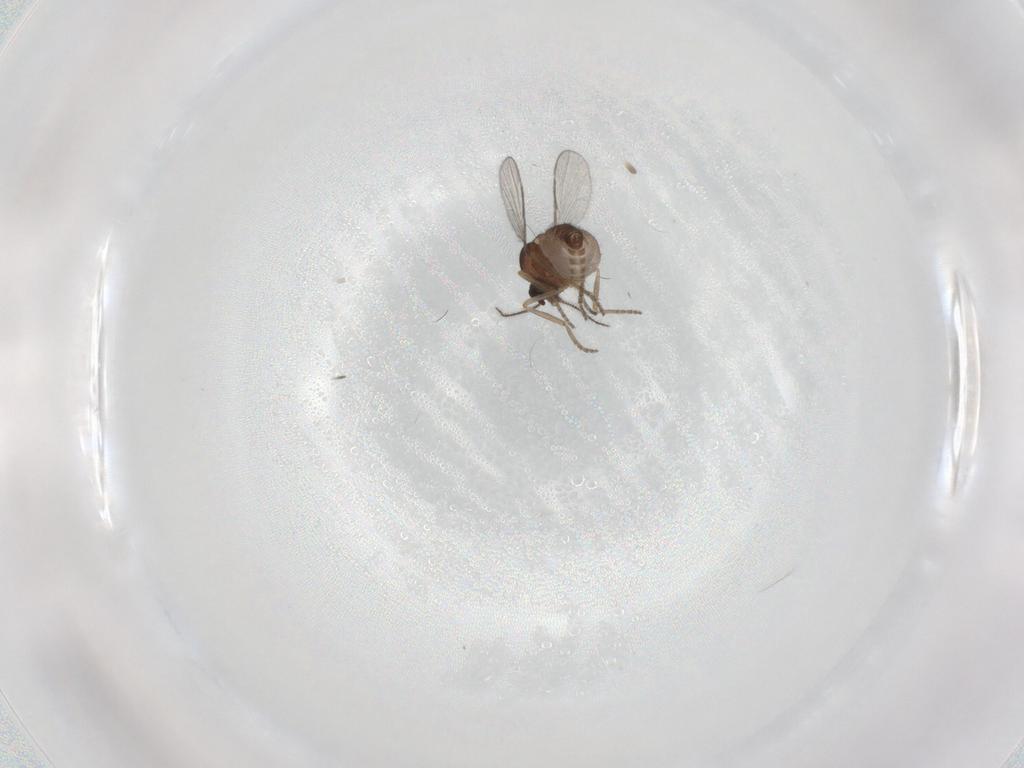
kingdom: Animalia
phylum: Arthropoda
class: Insecta
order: Diptera
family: Ceratopogonidae
